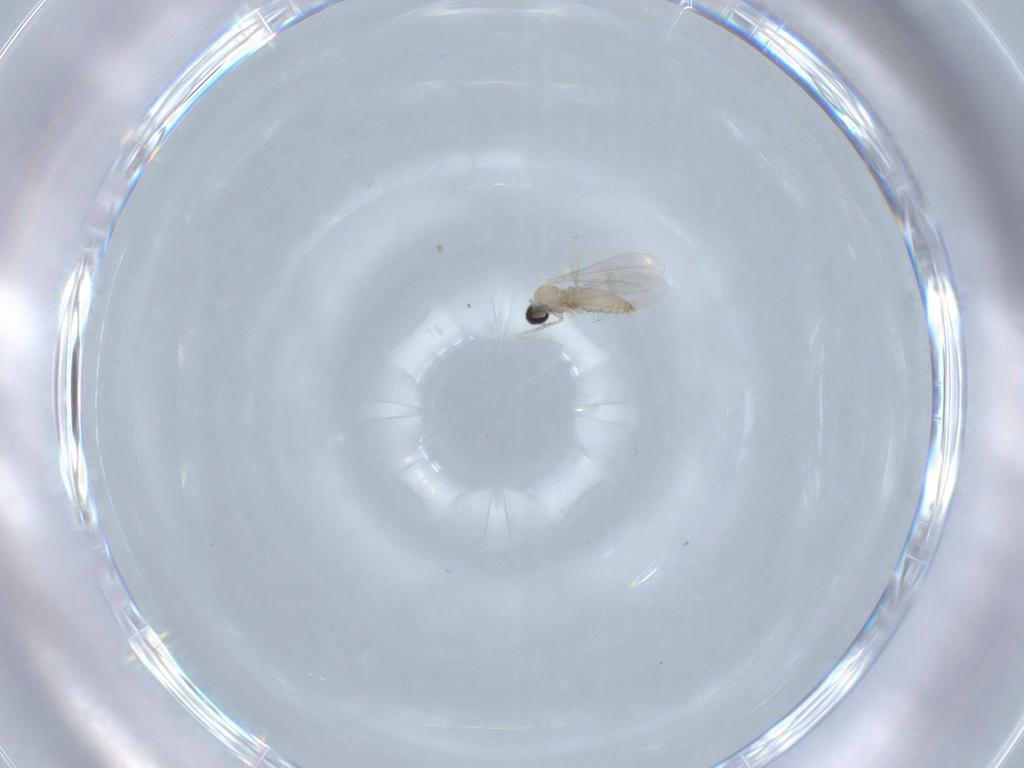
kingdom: Animalia
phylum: Arthropoda
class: Insecta
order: Diptera
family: Cecidomyiidae
